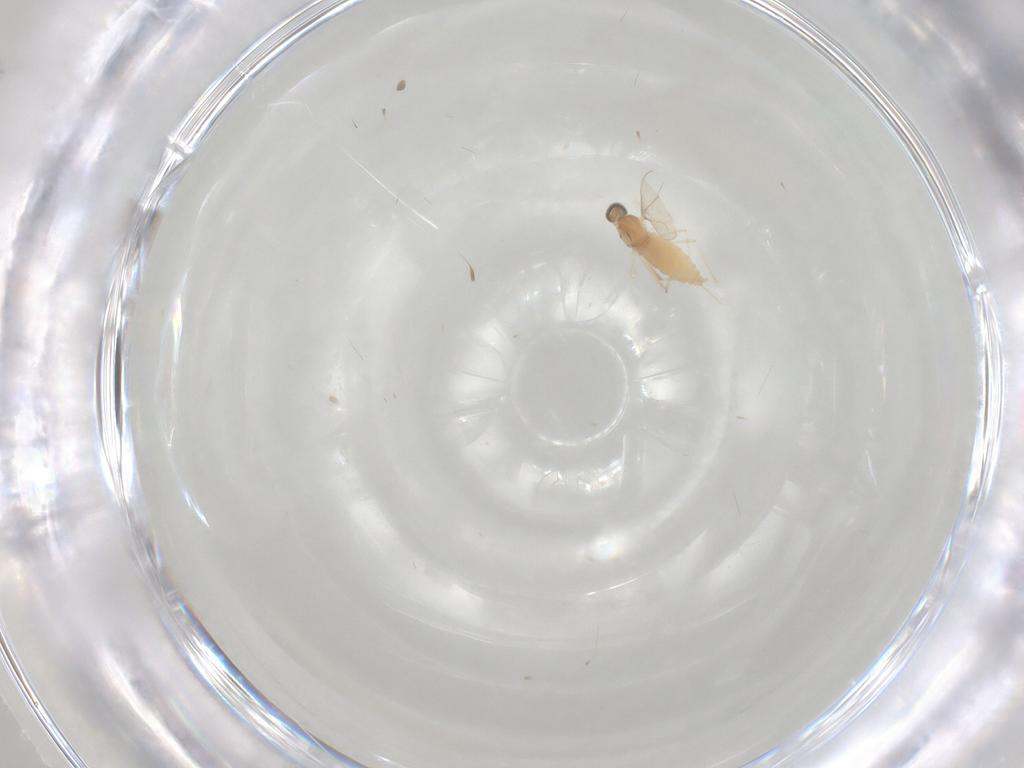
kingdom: Animalia
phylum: Arthropoda
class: Insecta
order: Diptera
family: Cecidomyiidae
